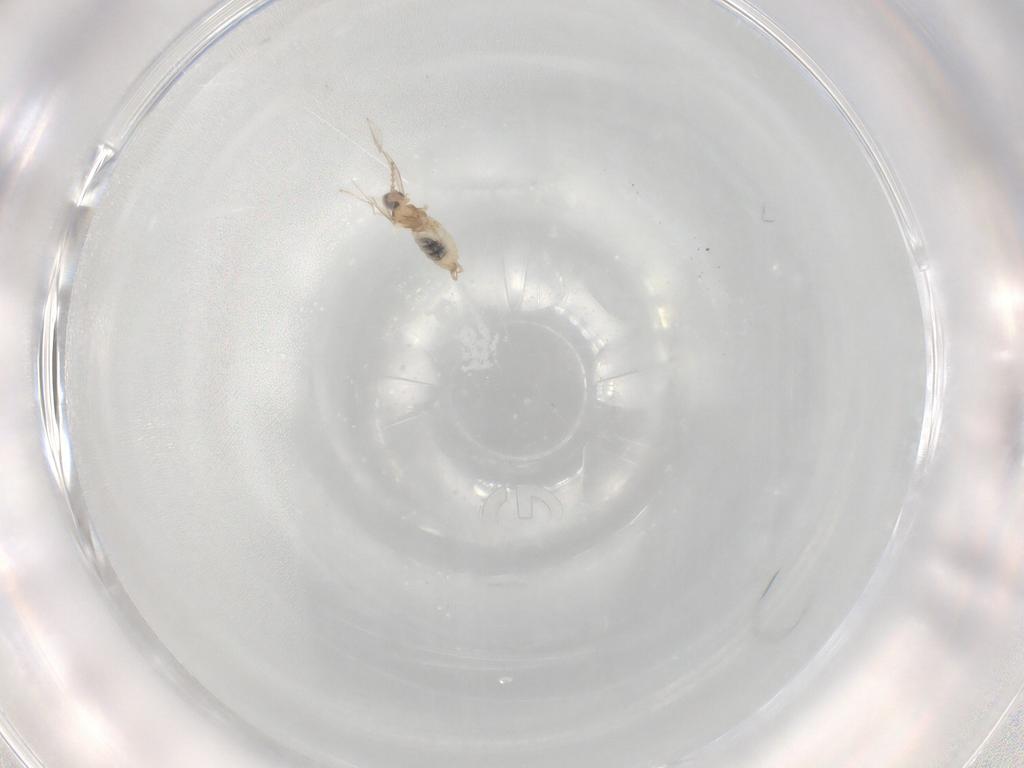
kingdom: Animalia
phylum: Arthropoda
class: Insecta
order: Diptera
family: Cecidomyiidae
